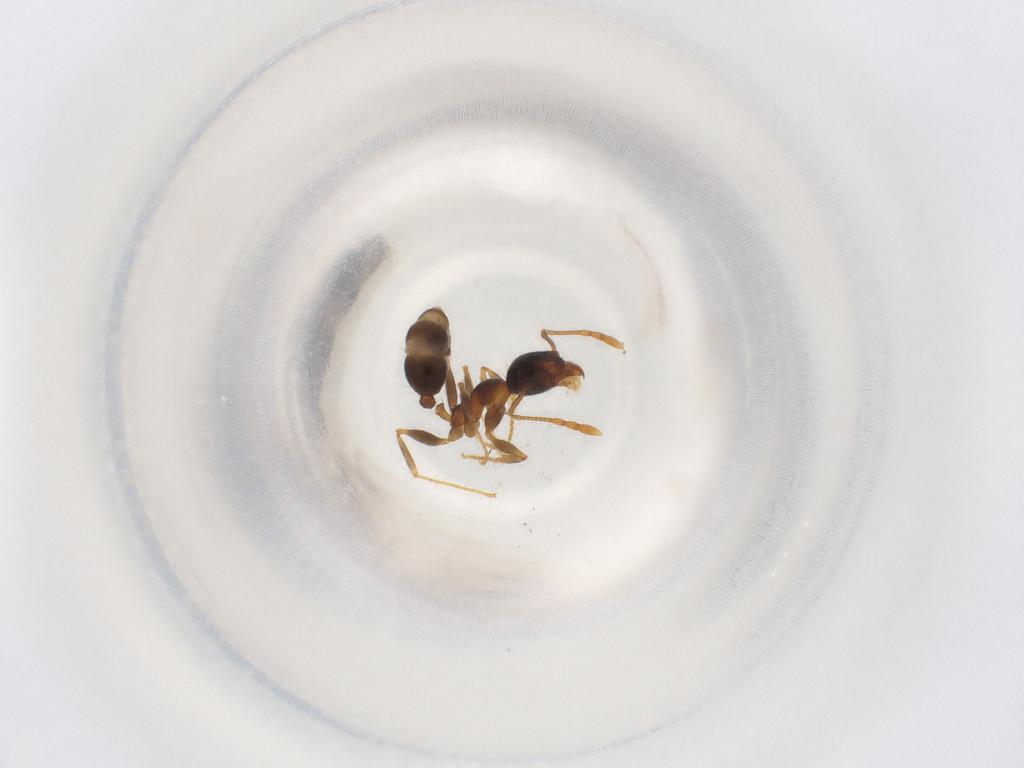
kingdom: Animalia
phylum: Arthropoda
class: Insecta
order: Hymenoptera
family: Formicidae
